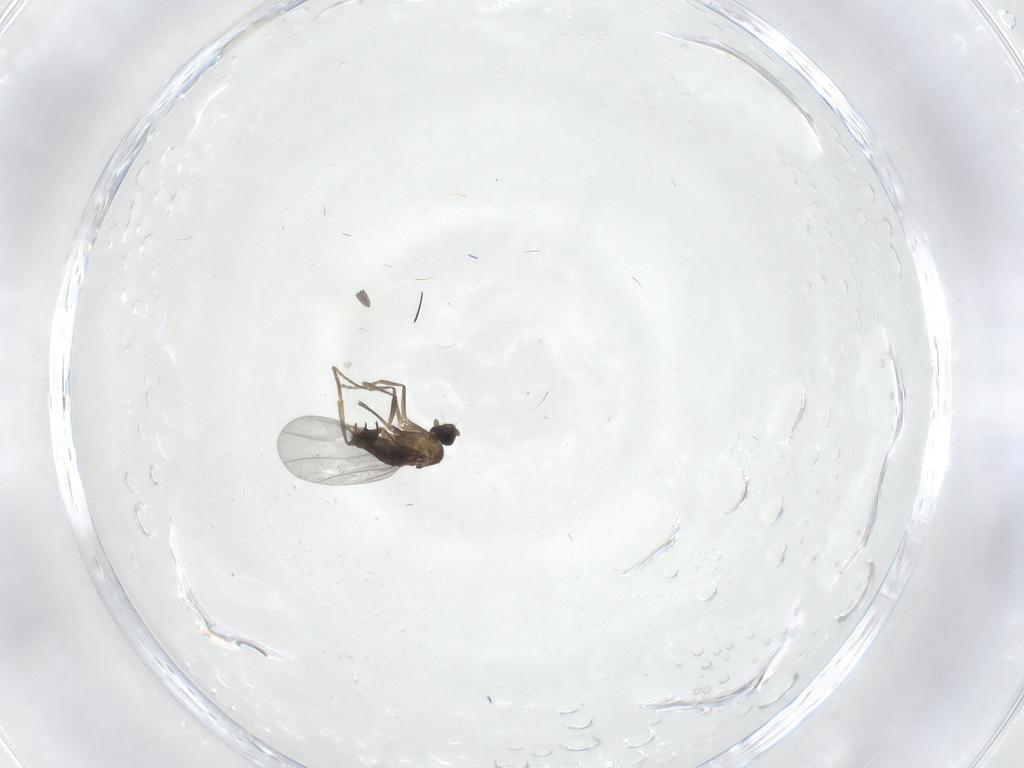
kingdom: Animalia
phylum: Arthropoda
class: Insecta
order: Diptera
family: Phoridae
